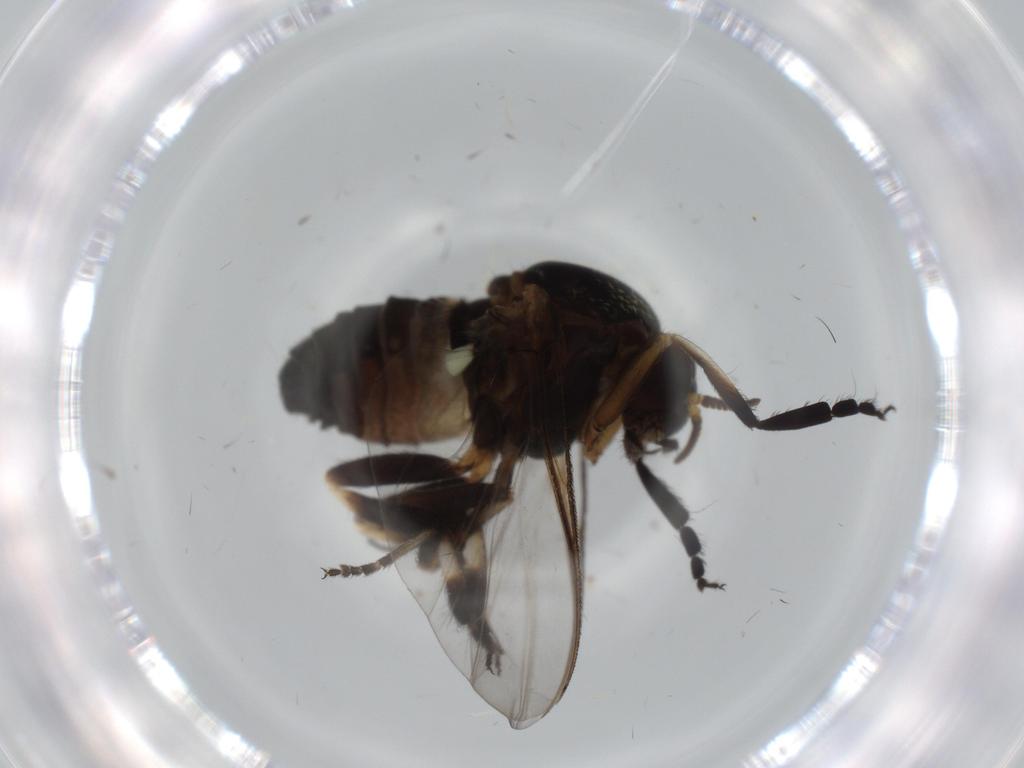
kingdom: Animalia
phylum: Arthropoda
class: Insecta
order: Diptera
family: Milichiidae
